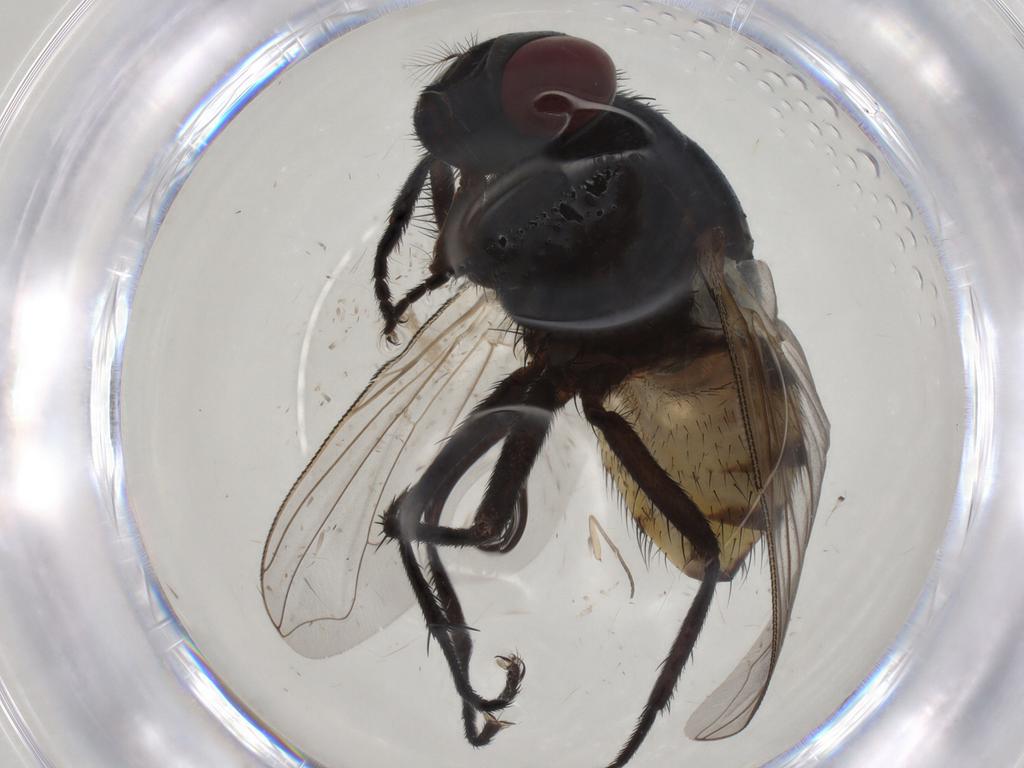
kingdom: Animalia
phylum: Arthropoda
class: Insecta
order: Diptera
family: Muscidae
